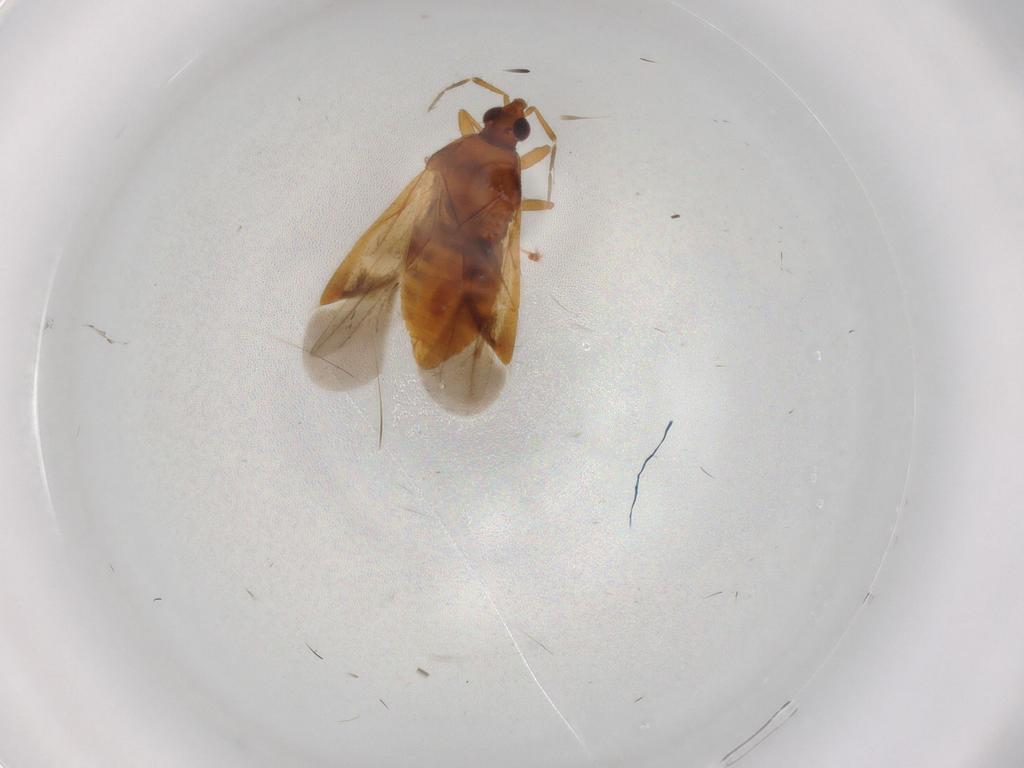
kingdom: Animalia
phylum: Arthropoda
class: Insecta
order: Hemiptera
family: Anthocoridae
